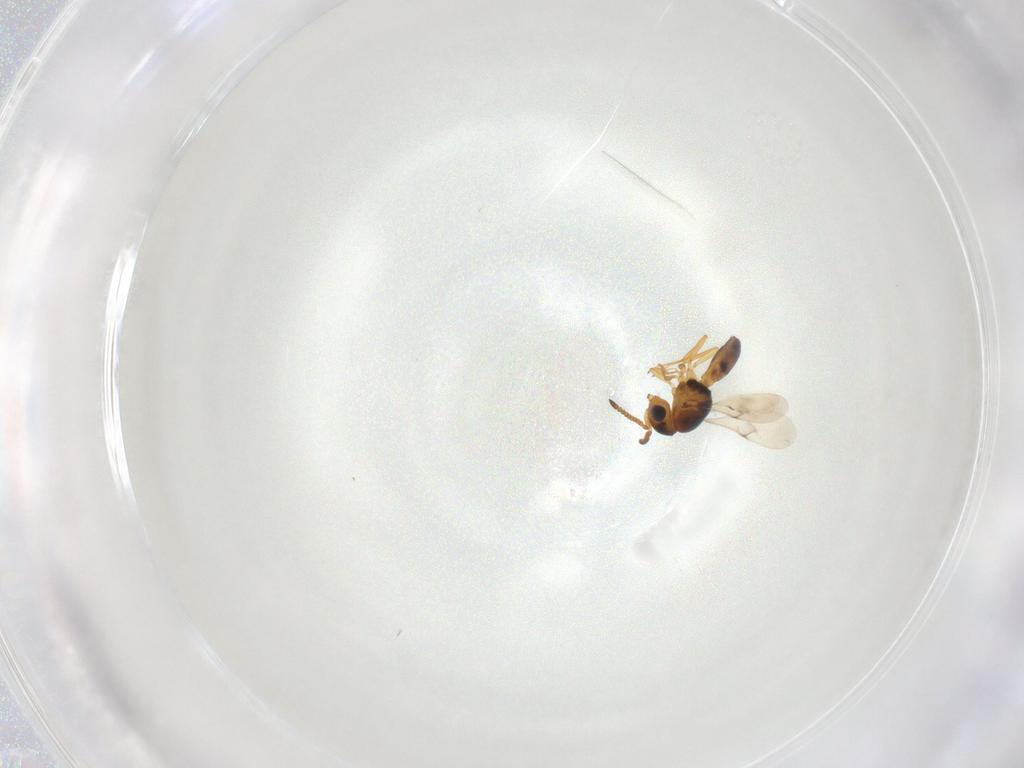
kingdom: Animalia
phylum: Arthropoda
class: Insecta
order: Hymenoptera
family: Scelionidae
